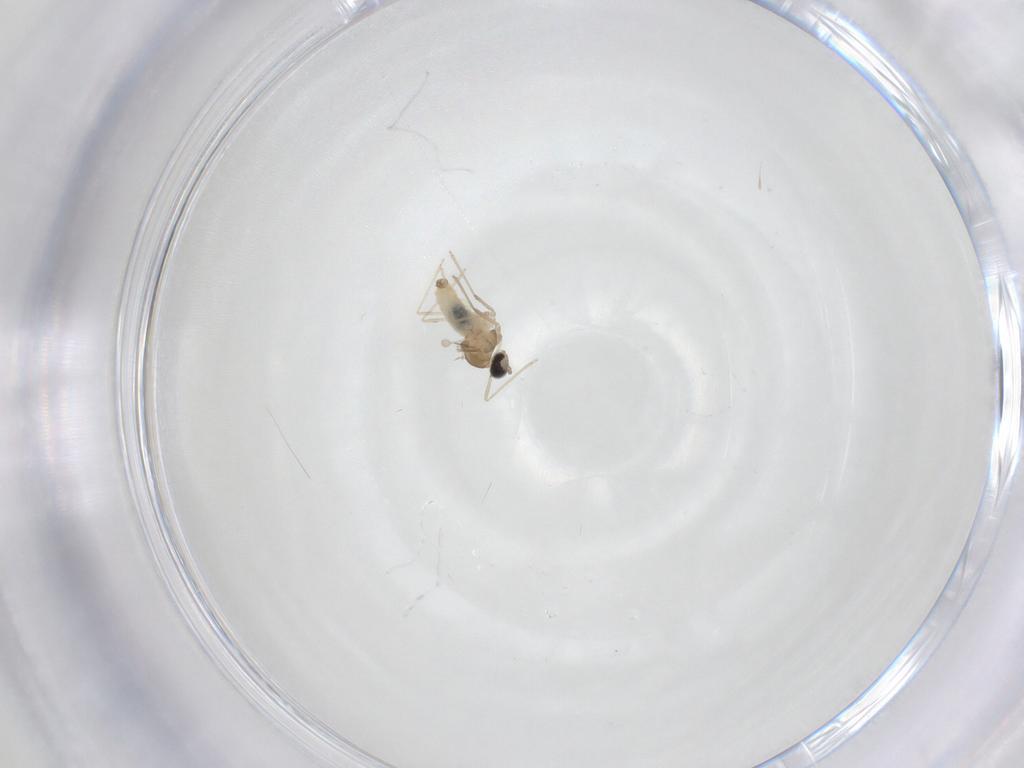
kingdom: Animalia
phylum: Arthropoda
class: Insecta
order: Diptera
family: Cecidomyiidae
